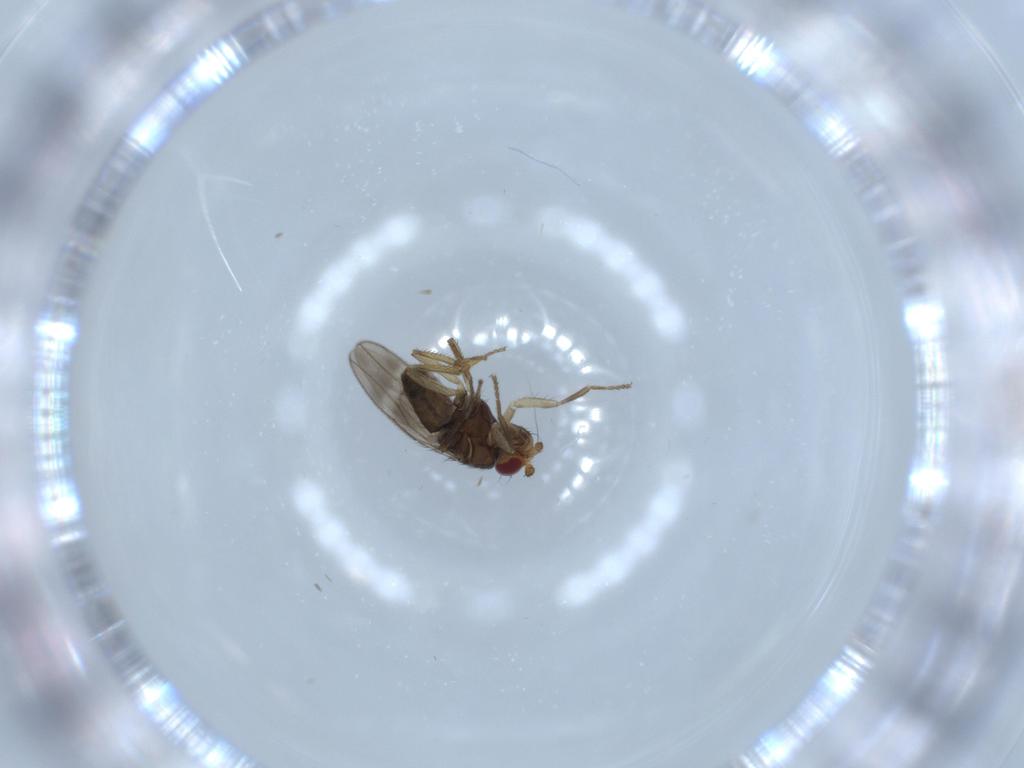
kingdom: Animalia
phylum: Arthropoda
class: Insecta
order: Diptera
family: Sphaeroceridae
